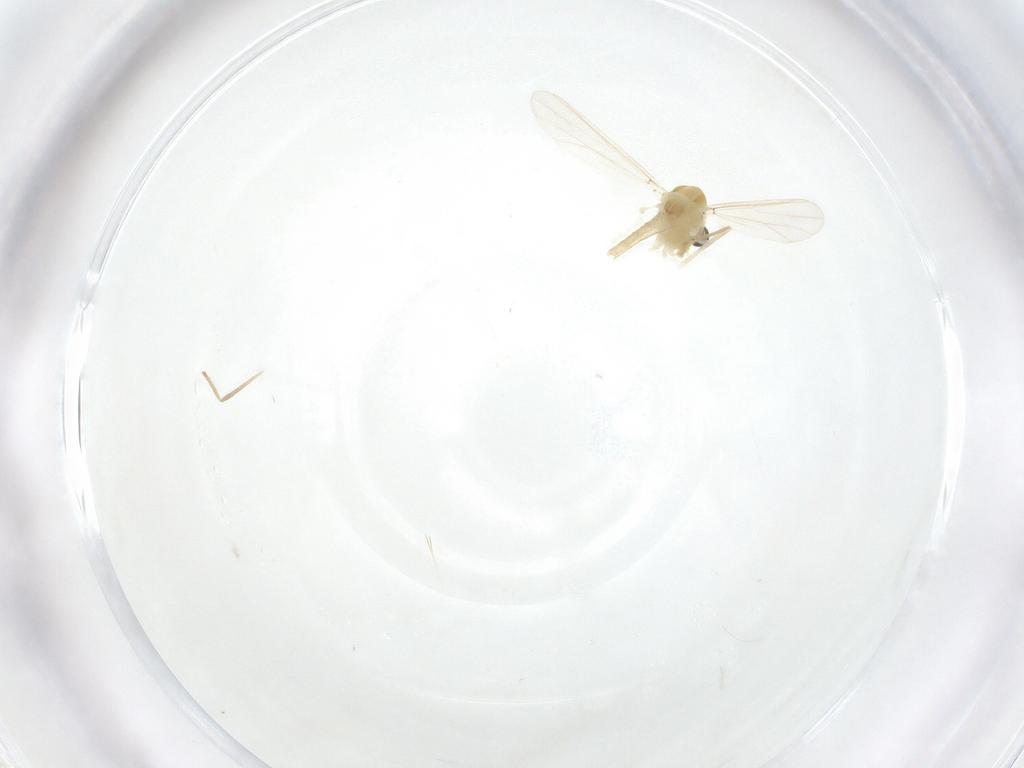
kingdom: Animalia
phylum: Arthropoda
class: Insecta
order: Diptera
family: Chironomidae
